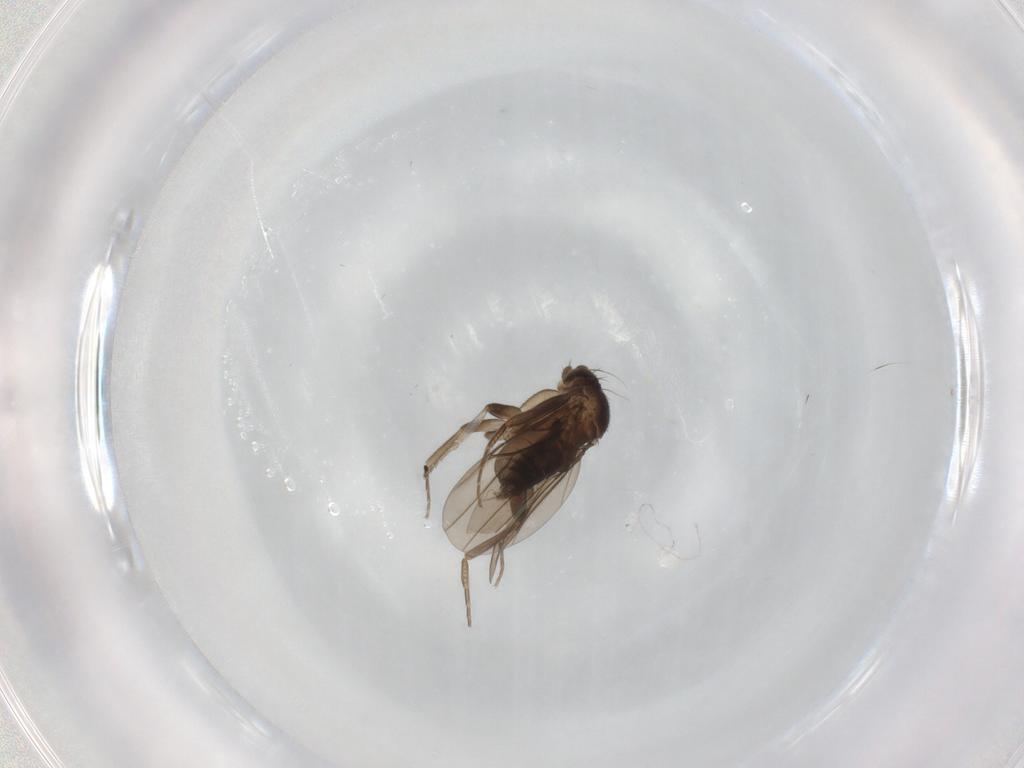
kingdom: Animalia
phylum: Arthropoda
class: Insecta
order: Diptera
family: Phoridae
